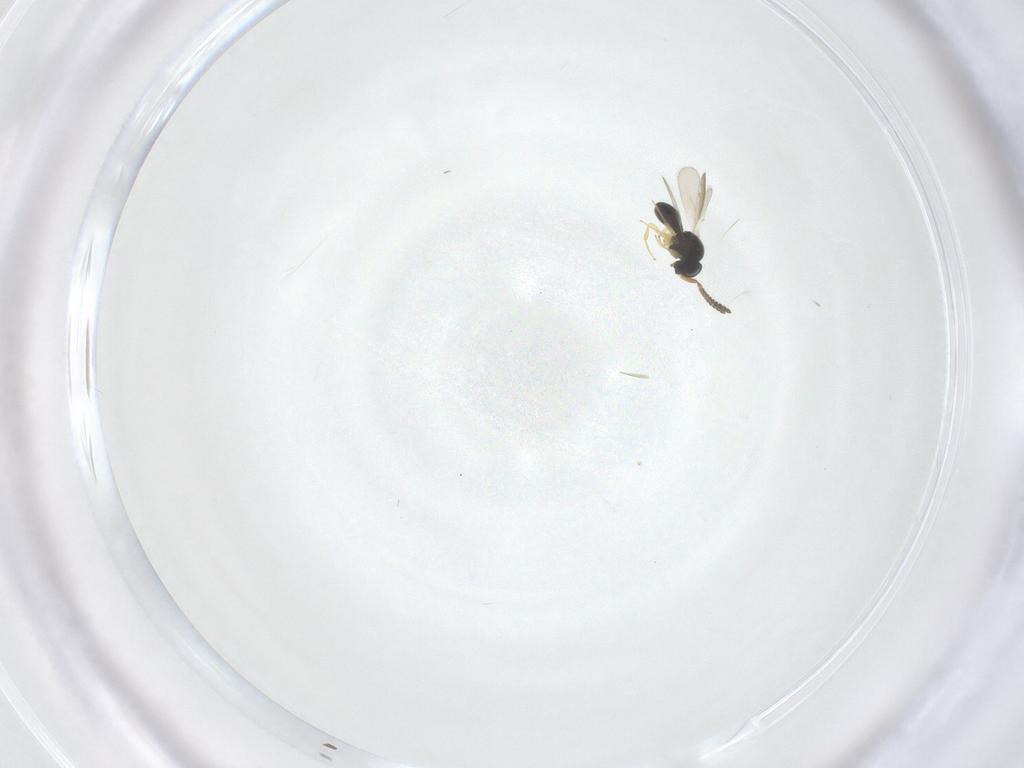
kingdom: Animalia
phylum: Arthropoda
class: Insecta
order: Hymenoptera
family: Scelionidae
